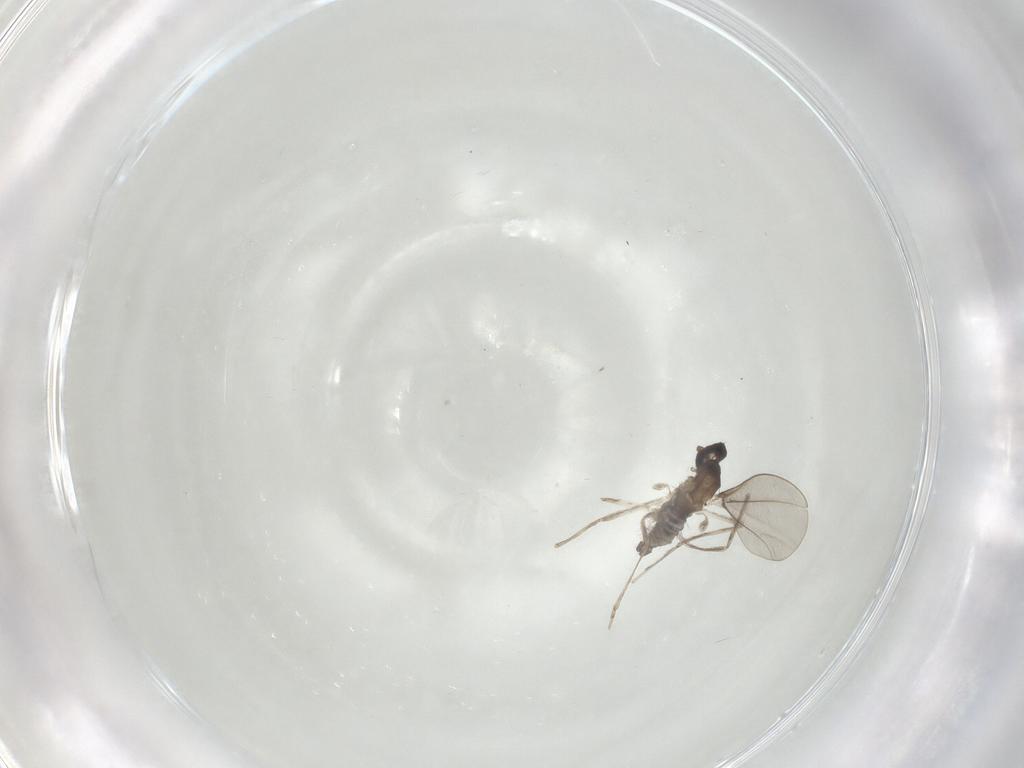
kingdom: Animalia
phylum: Arthropoda
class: Insecta
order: Diptera
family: Cecidomyiidae
